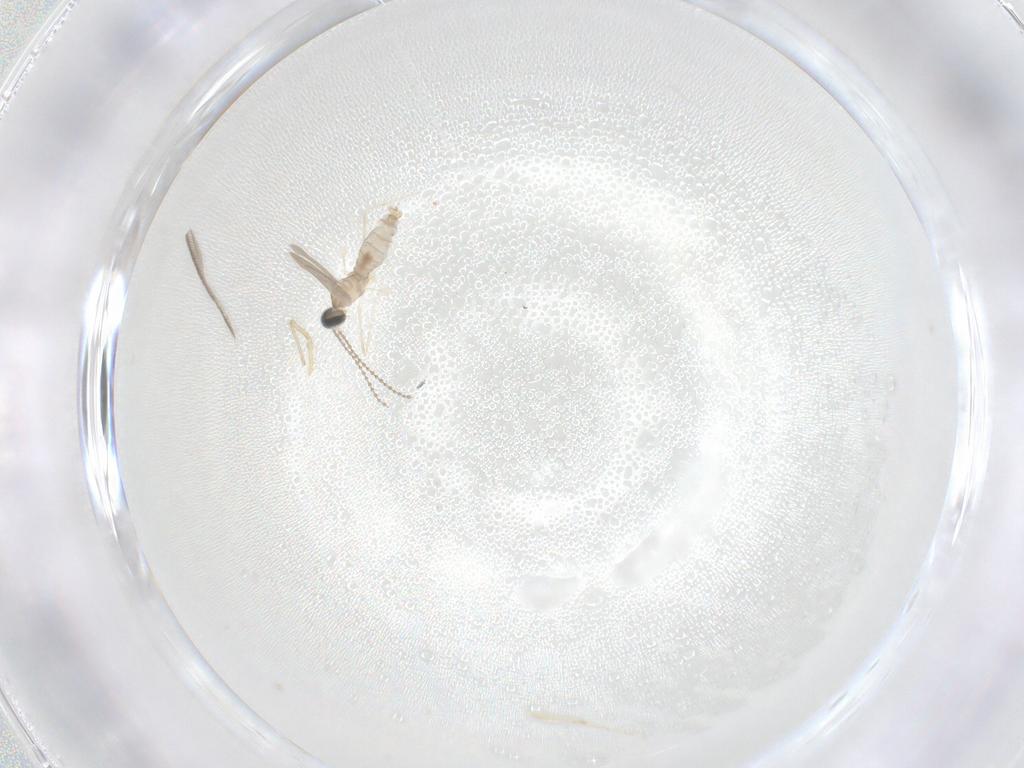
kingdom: Animalia
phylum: Arthropoda
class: Insecta
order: Diptera
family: Cecidomyiidae
